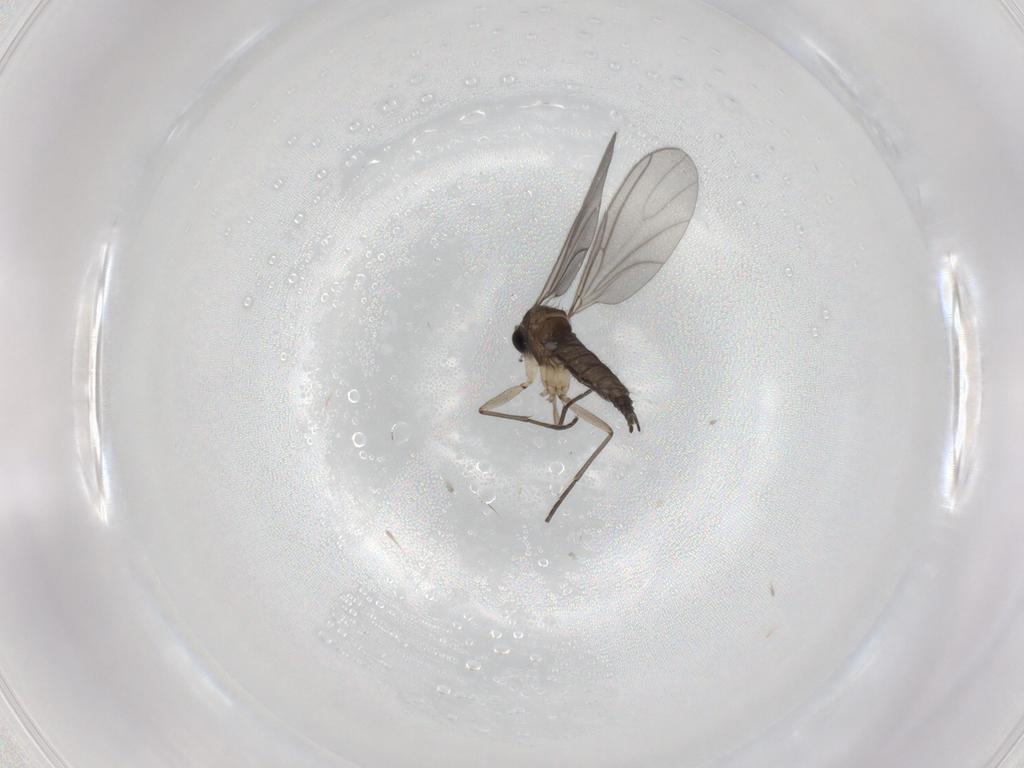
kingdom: Animalia
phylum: Arthropoda
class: Insecta
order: Diptera
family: Sciaridae
